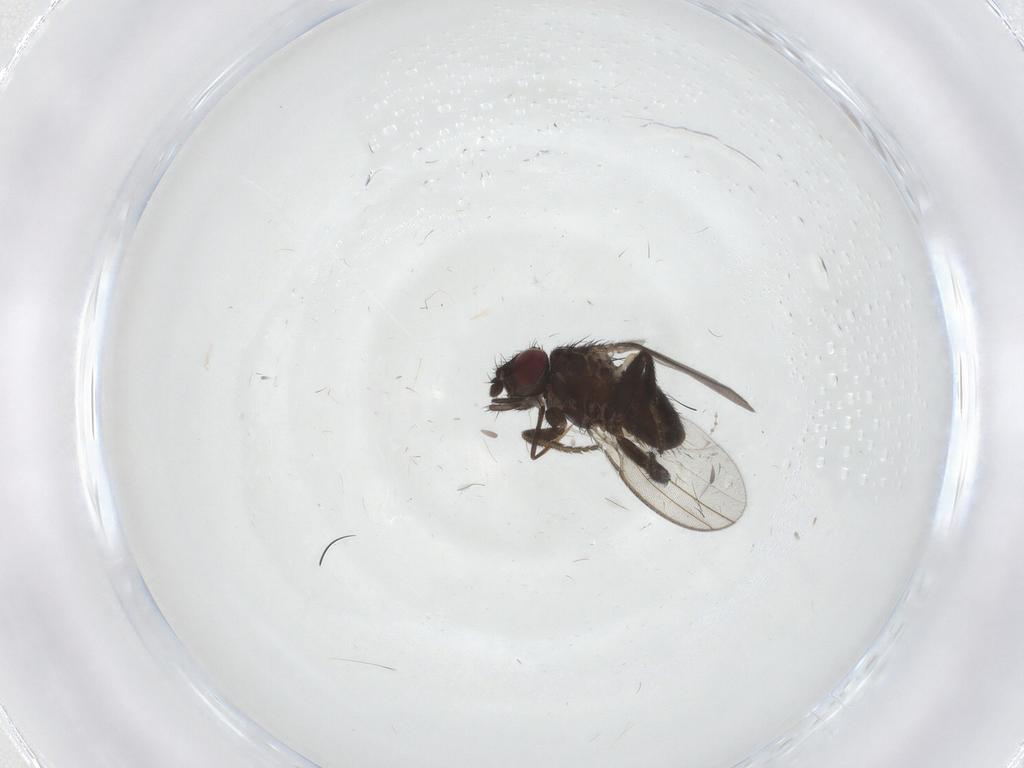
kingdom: Animalia
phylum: Arthropoda
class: Insecta
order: Diptera
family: Milichiidae
